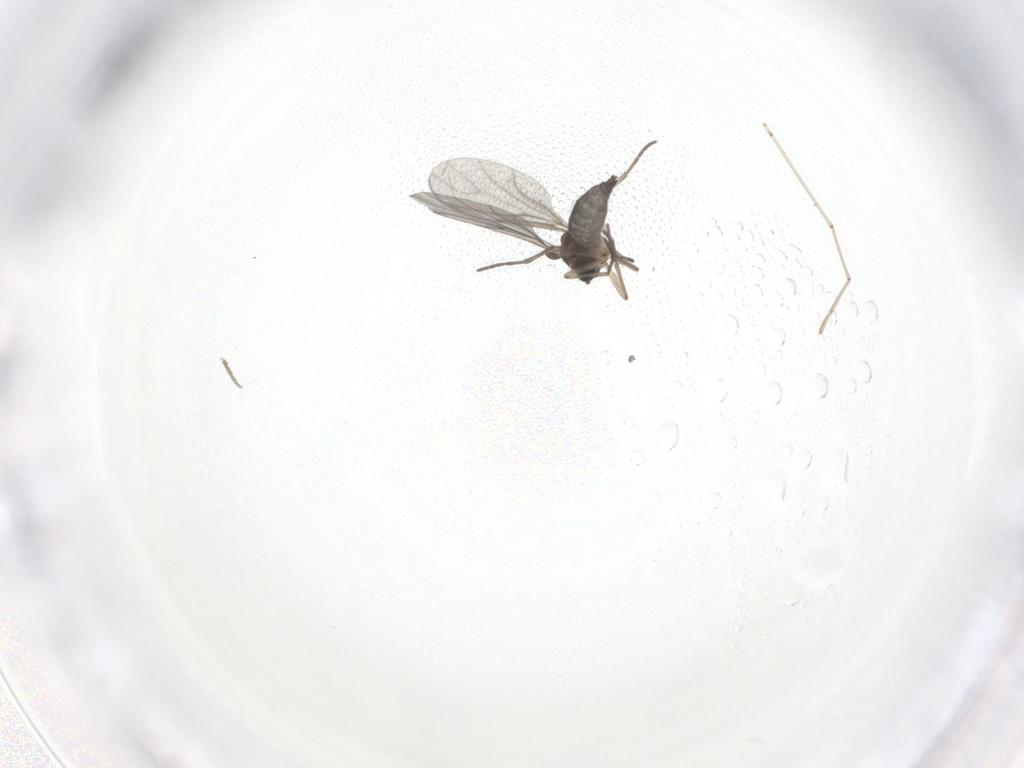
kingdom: Animalia
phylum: Arthropoda
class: Insecta
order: Diptera
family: Cecidomyiidae
